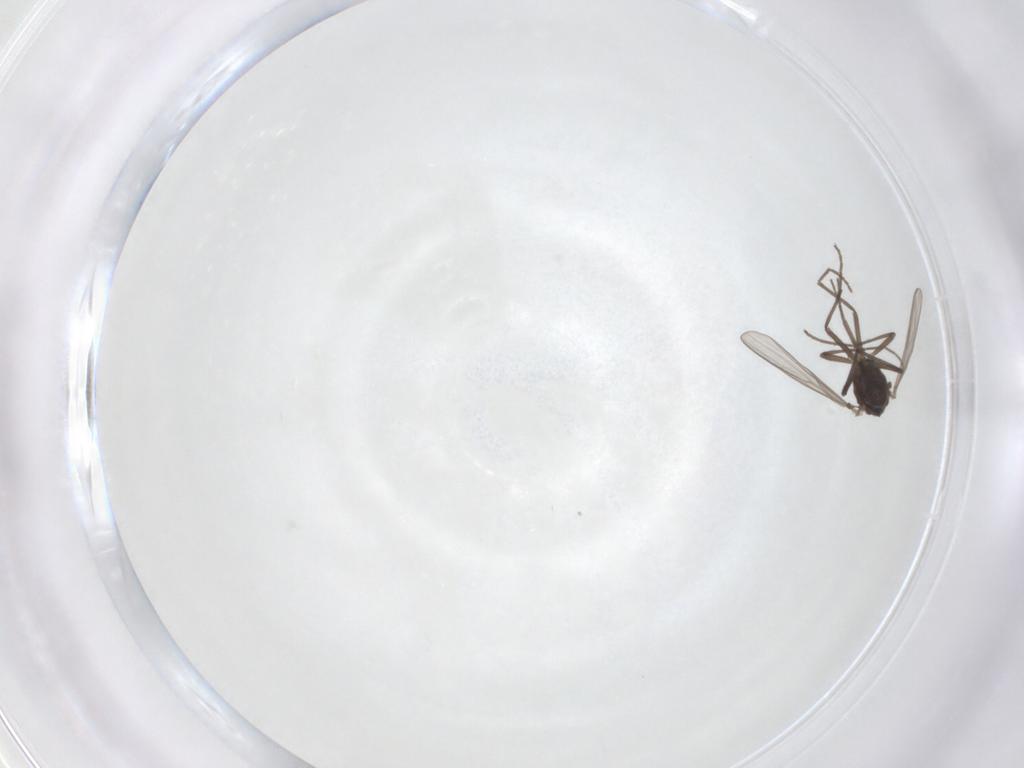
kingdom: Animalia
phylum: Arthropoda
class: Insecta
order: Diptera
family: Chironomidae
